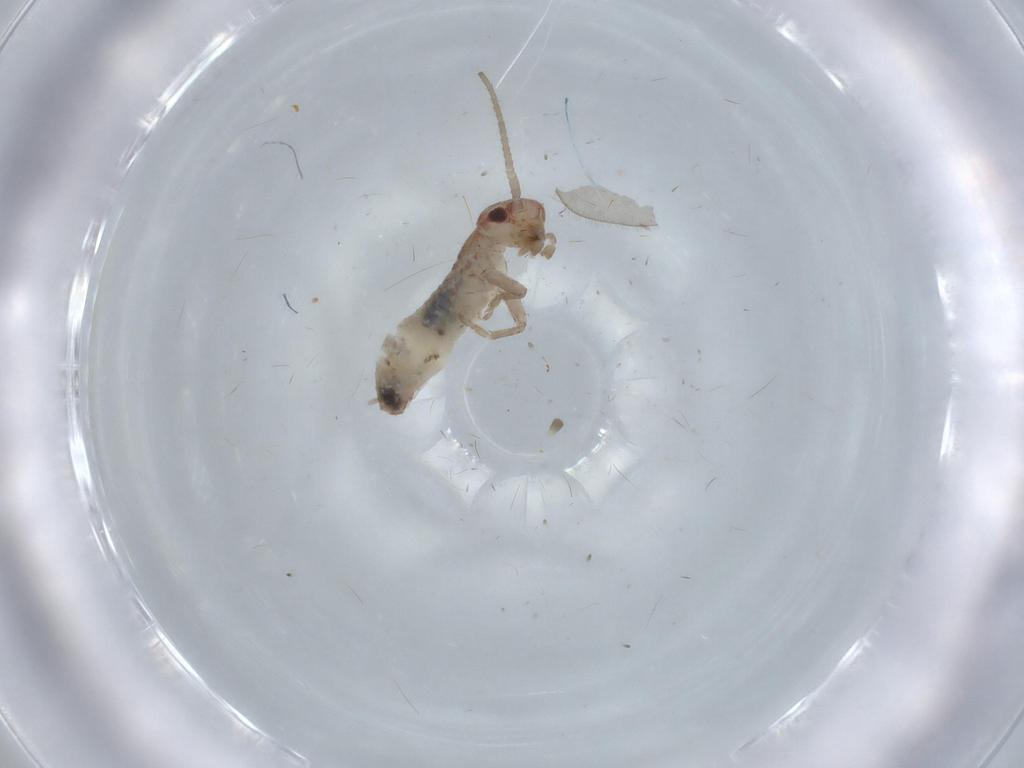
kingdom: Animalia
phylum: Arthropoda
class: Insecta
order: Orthoptera
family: Mogoplistidae
